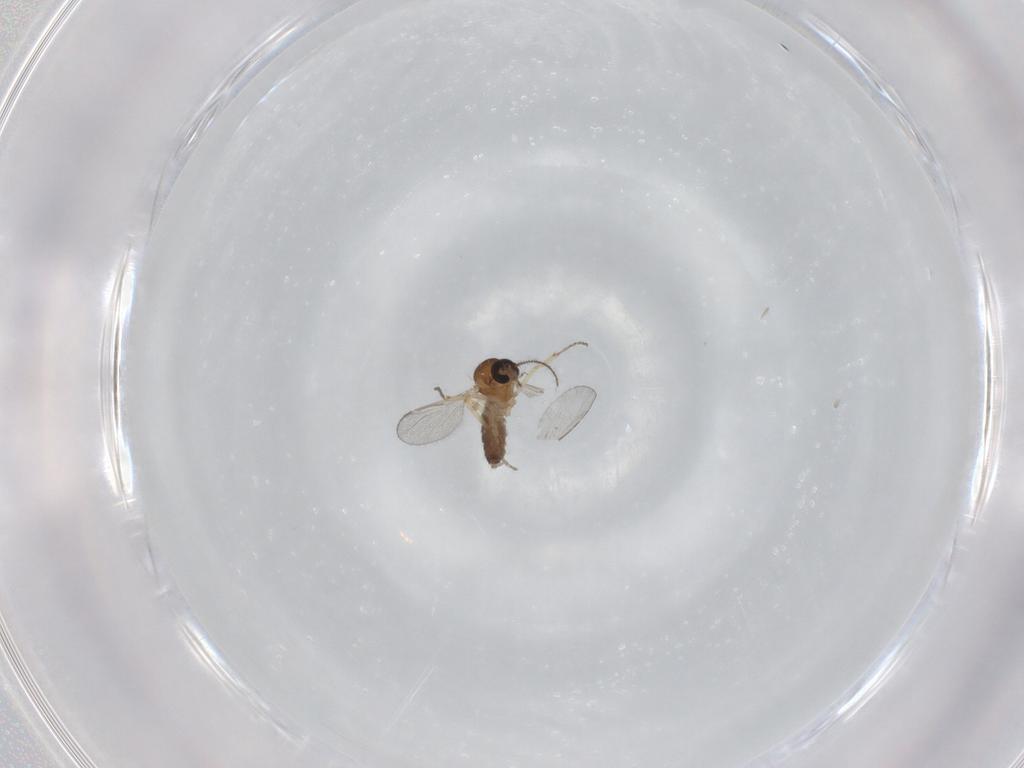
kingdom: Animalia
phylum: Arthropoda
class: Insecta
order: Diptera
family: Ceratopogonidae
